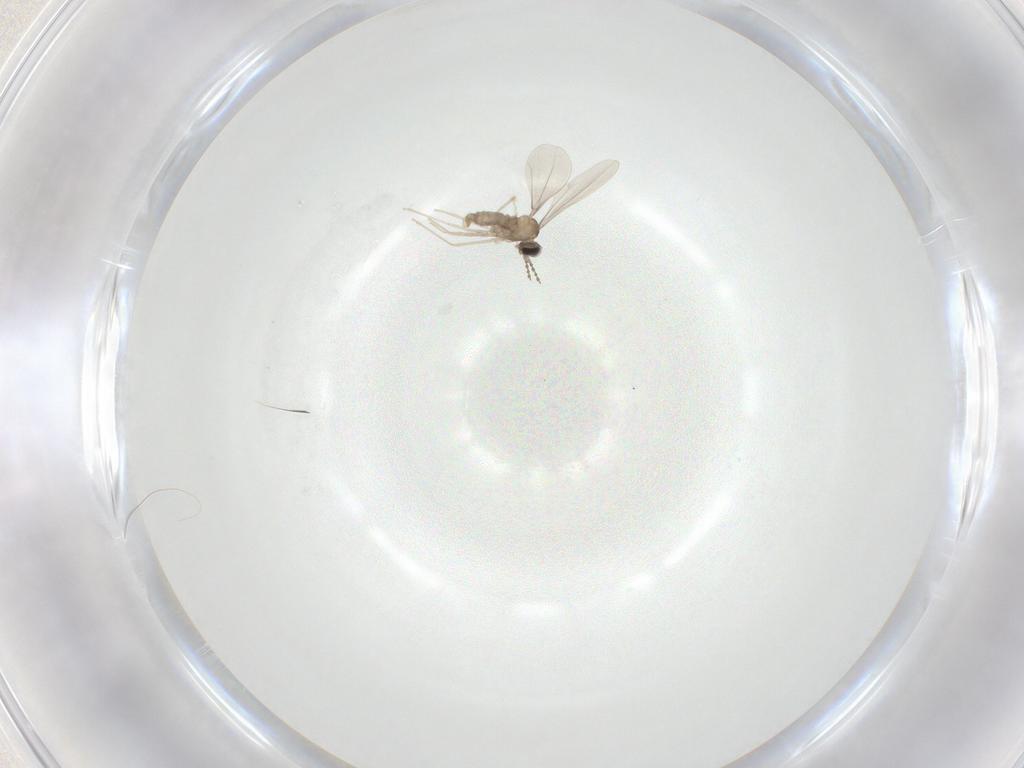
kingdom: Animalia
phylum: Arthropoda
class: Insecta
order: Diptera
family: Cecidomyiidae
